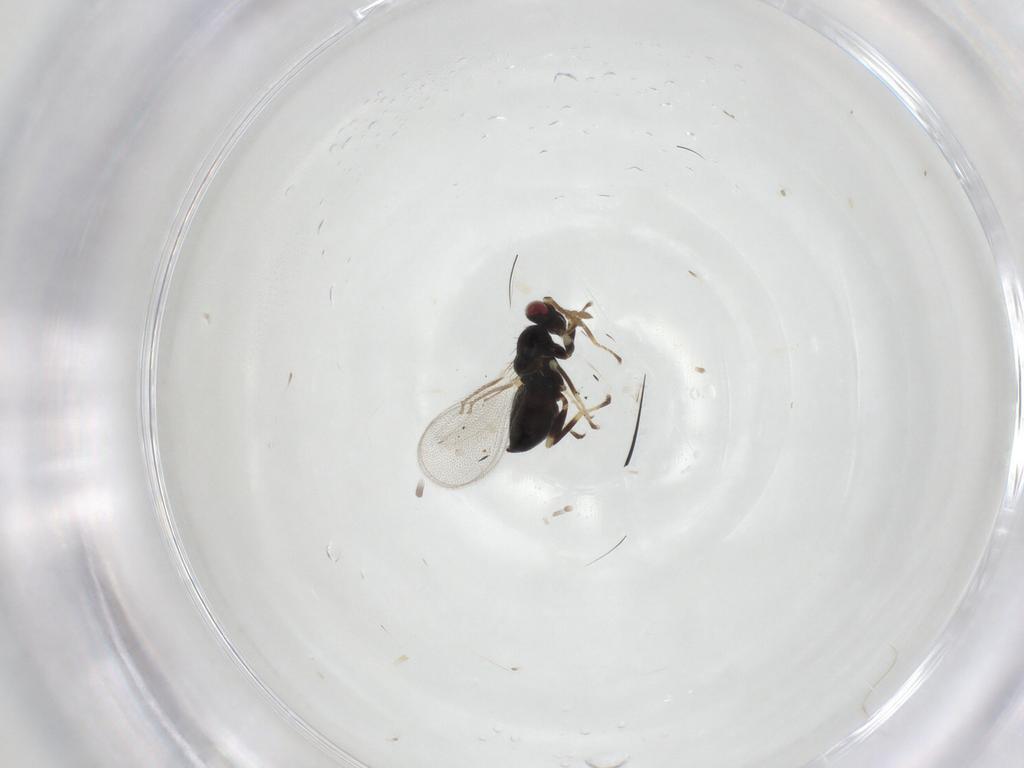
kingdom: Animalia
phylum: Arthropoda
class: Insecta
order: Hymenoptera
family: Eulophidae
